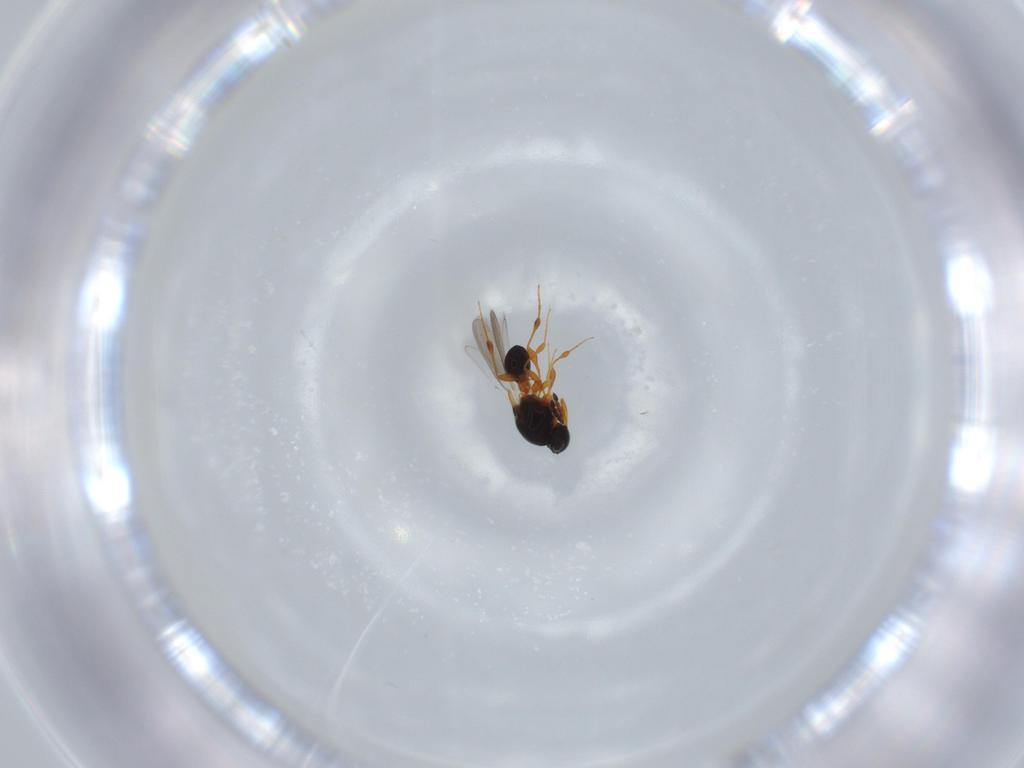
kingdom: Animalia
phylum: Arthropoda
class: Insecta
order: Hymenoptera
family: Platygastridae
